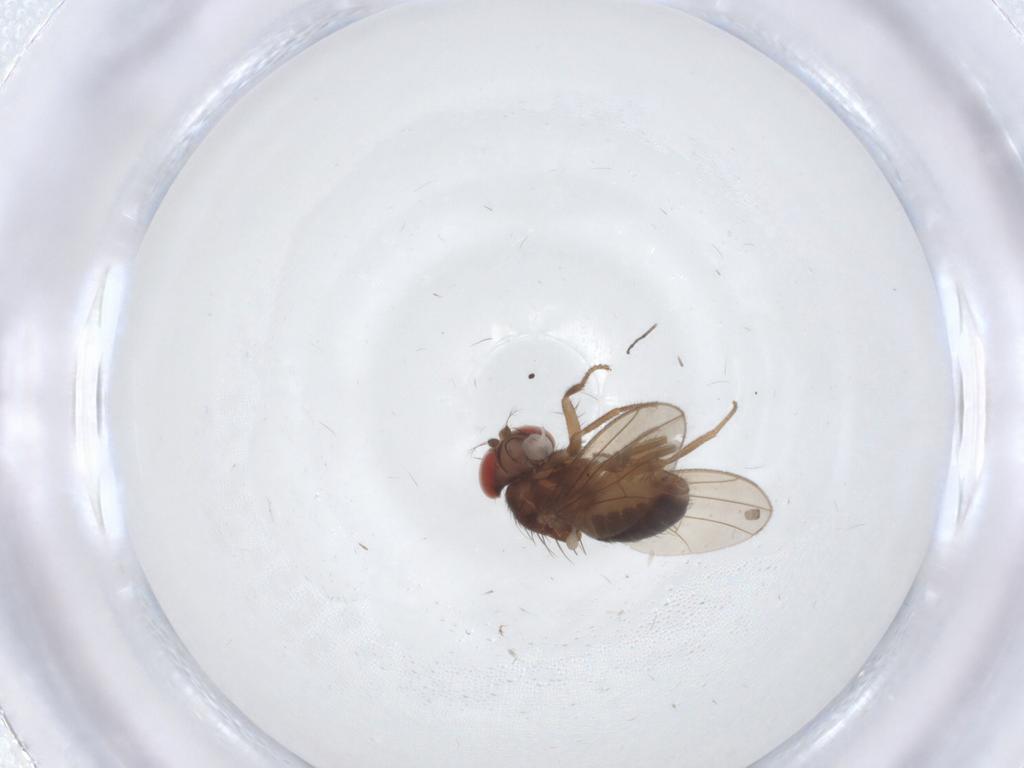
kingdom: Animalia
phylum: Arthropoda
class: Insecta
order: Diptera
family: Drosophilidae
